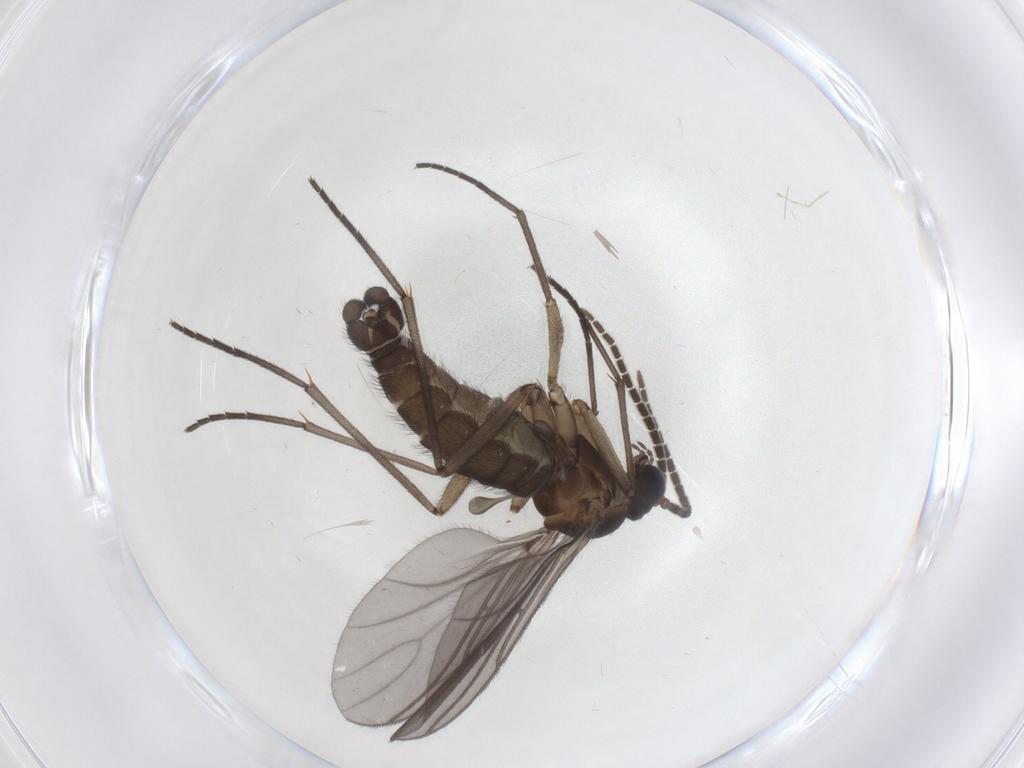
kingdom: Animalia
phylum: Arthropoda
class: Insecta
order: Diptera
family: Sciaridae
